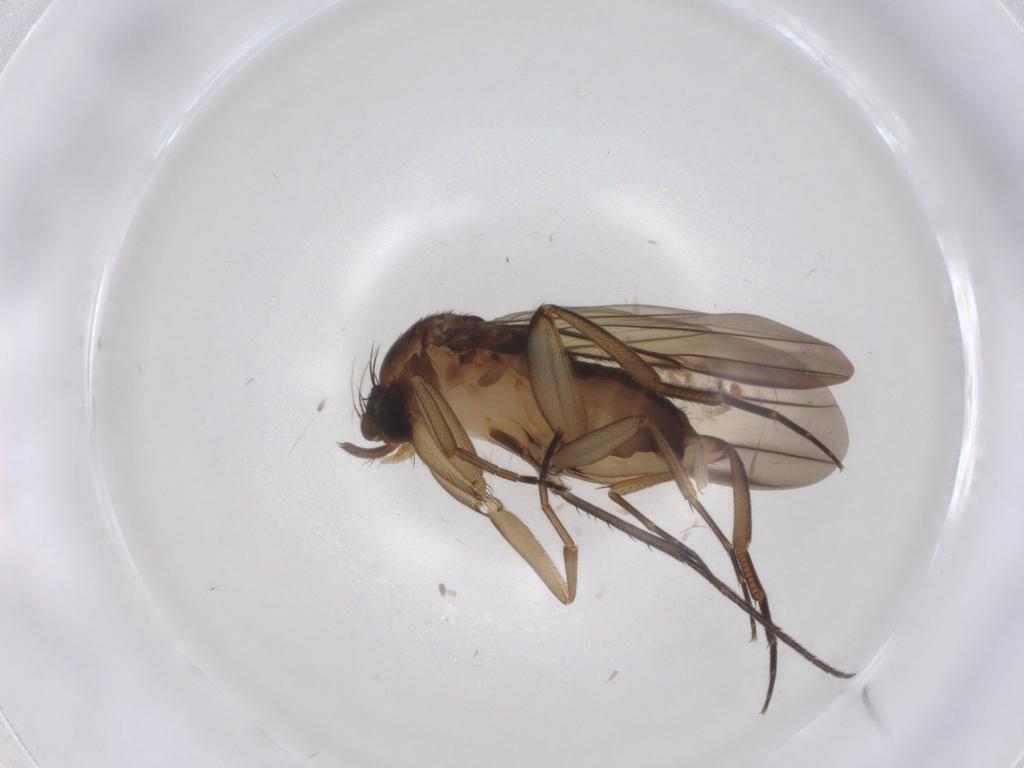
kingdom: Animalia
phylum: Arthropoda
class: Insecta
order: Diptera
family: Phoridae
